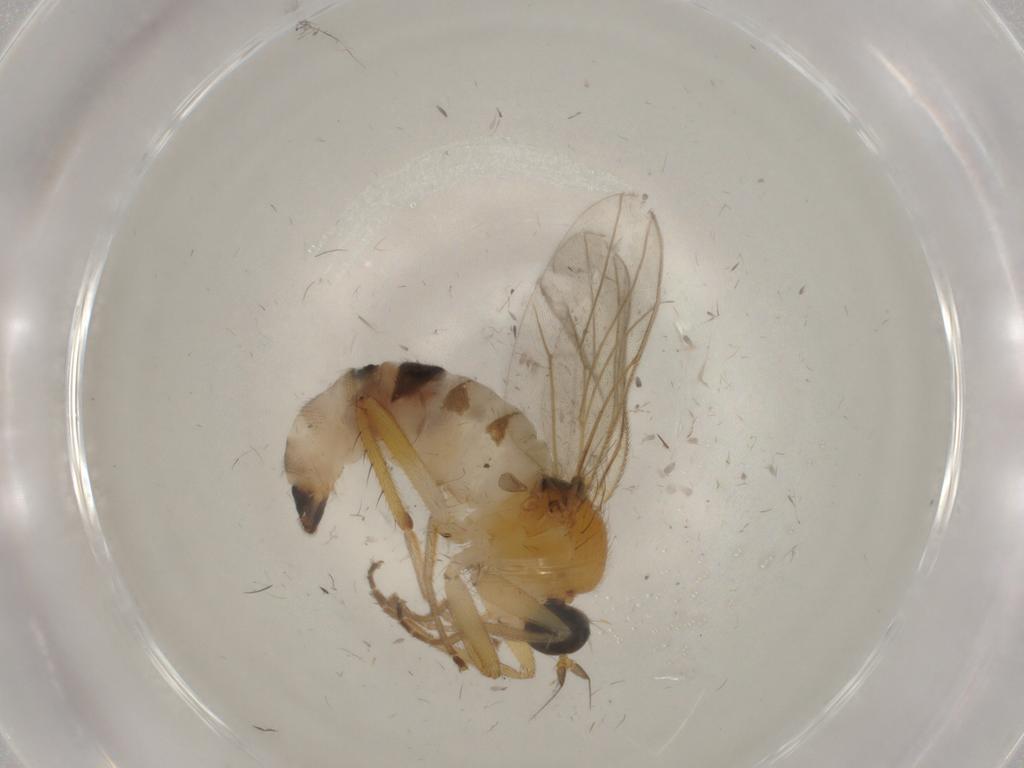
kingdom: Animalia
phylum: Arthropoda
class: Insecta
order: Diptera
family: Hybotidae
